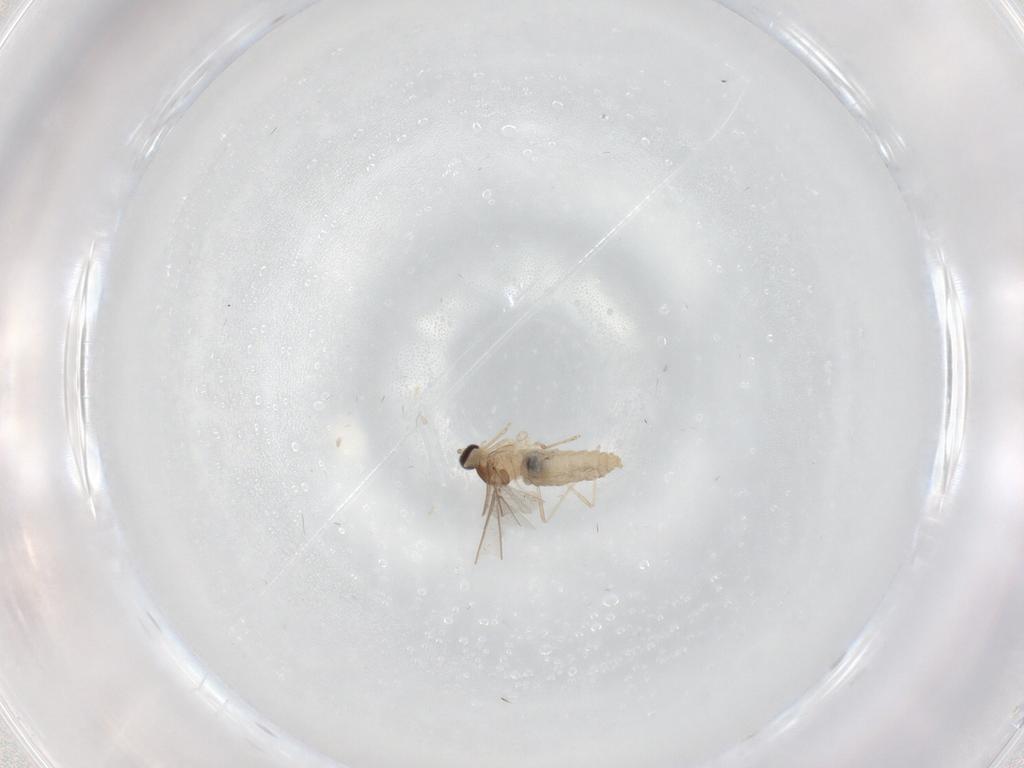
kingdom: Animalia
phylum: Arthropoda
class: Insecta
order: Diptera
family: Cecidomyiidae
